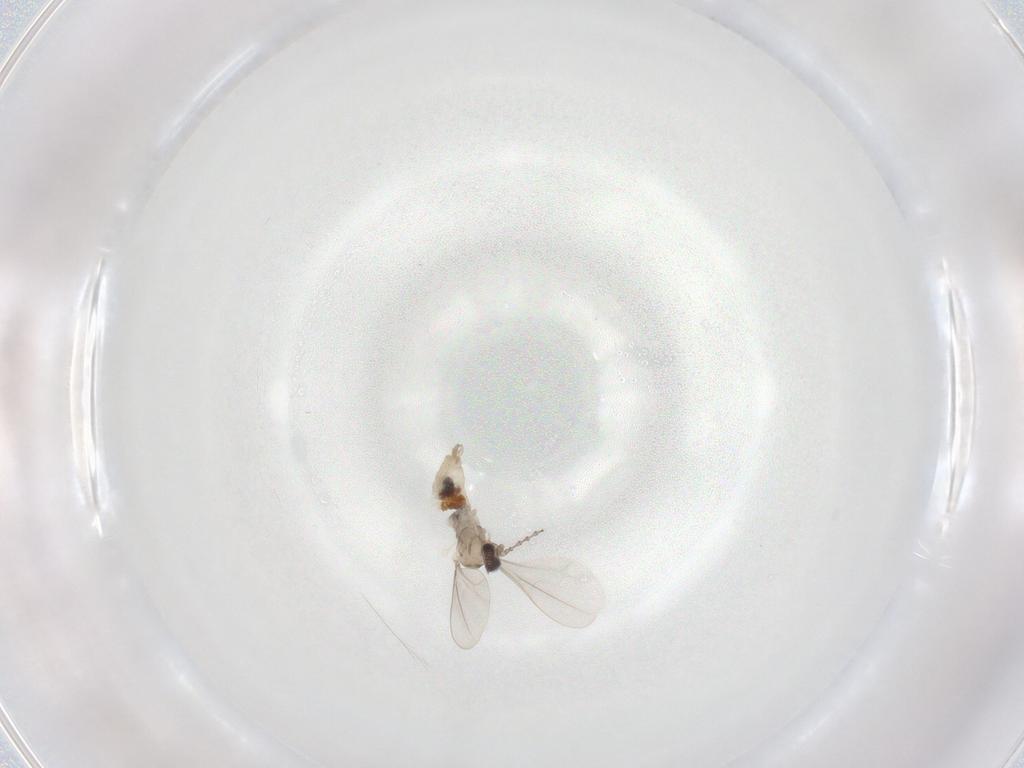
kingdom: Animalia
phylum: Arthropoda
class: Insecta
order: Diptera
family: Cecidomyiidae
